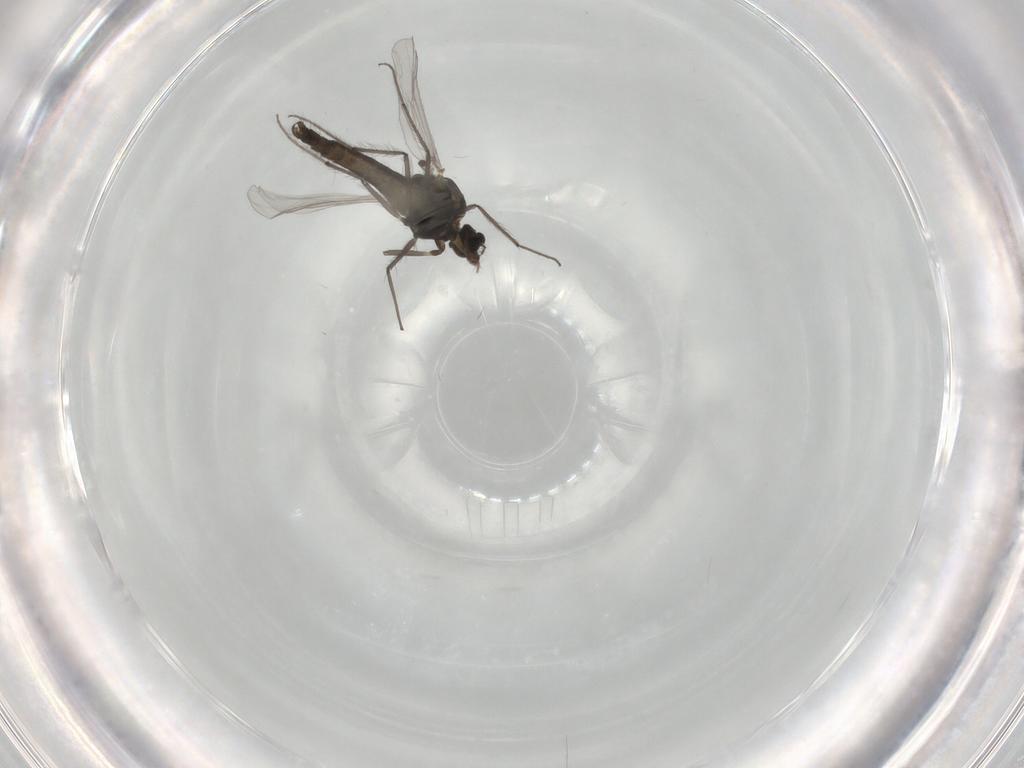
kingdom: Animalia
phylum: Arthropoda
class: Insecta
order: Diptera
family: Chironomidae
